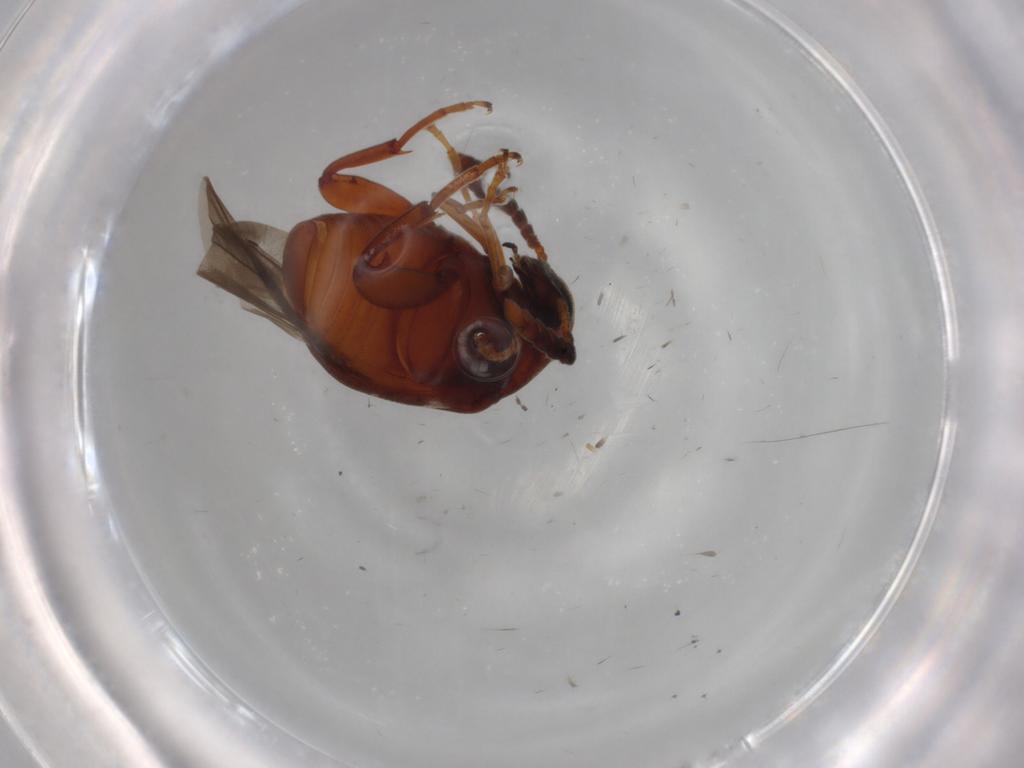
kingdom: Animalia
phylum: Arthropoda
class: Insecta
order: Coleoptera
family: Chrysomelidae
